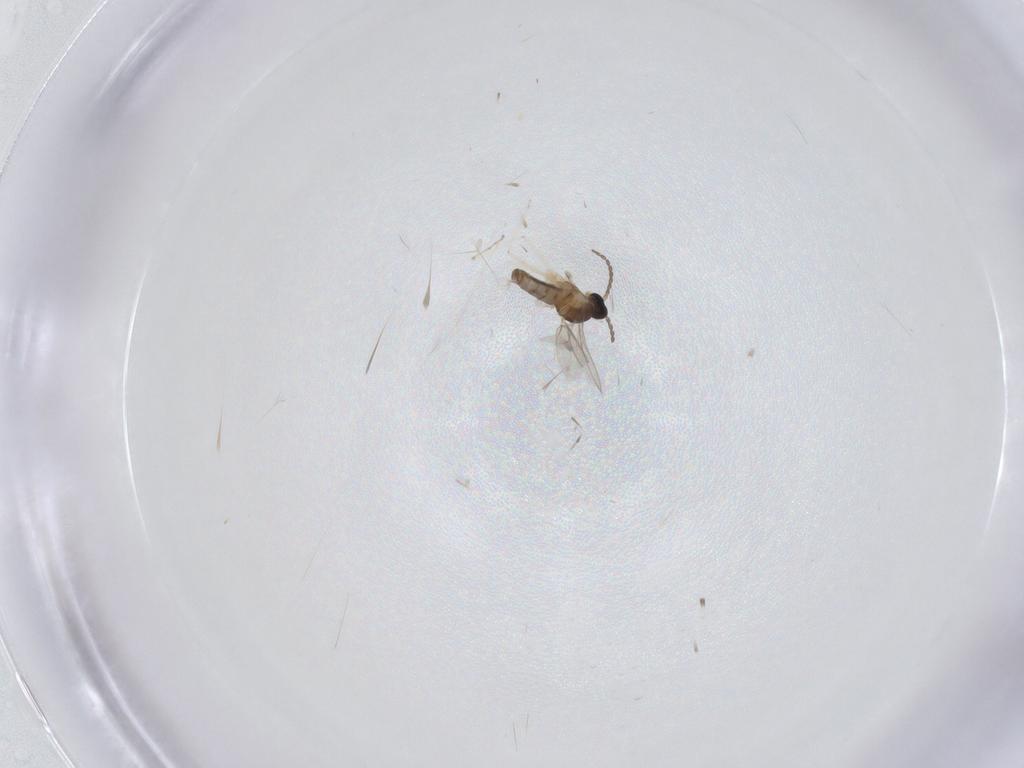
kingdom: Animalia
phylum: Arthropoda
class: Insecta
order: Diptera
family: Cecidomyiidae
